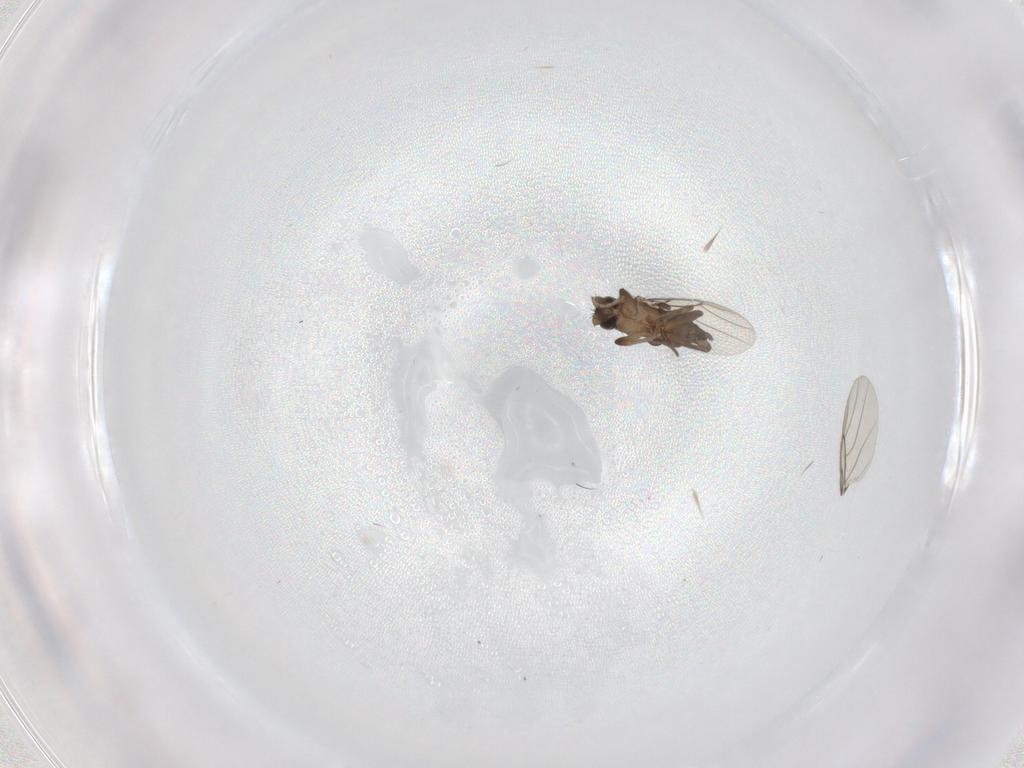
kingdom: Animalia
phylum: Arthropoda
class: Insecta
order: Diptera
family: Phoridae
